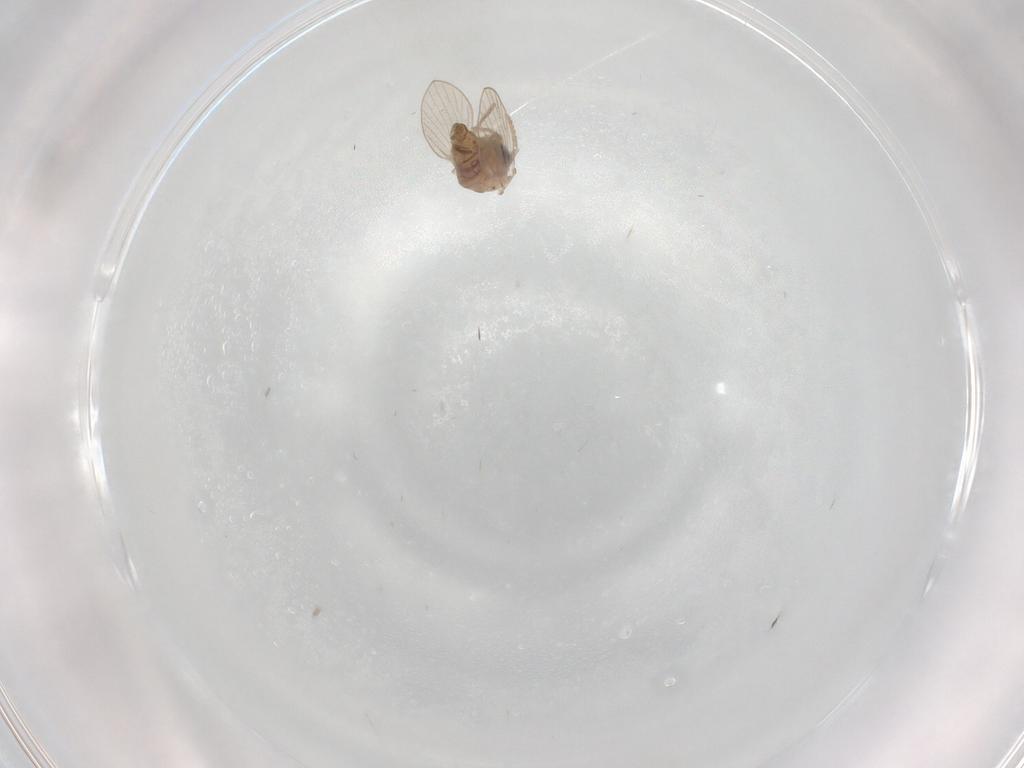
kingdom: Animalia
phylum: Arthropoda
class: Insecta
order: Diptera
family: Psychodidae
